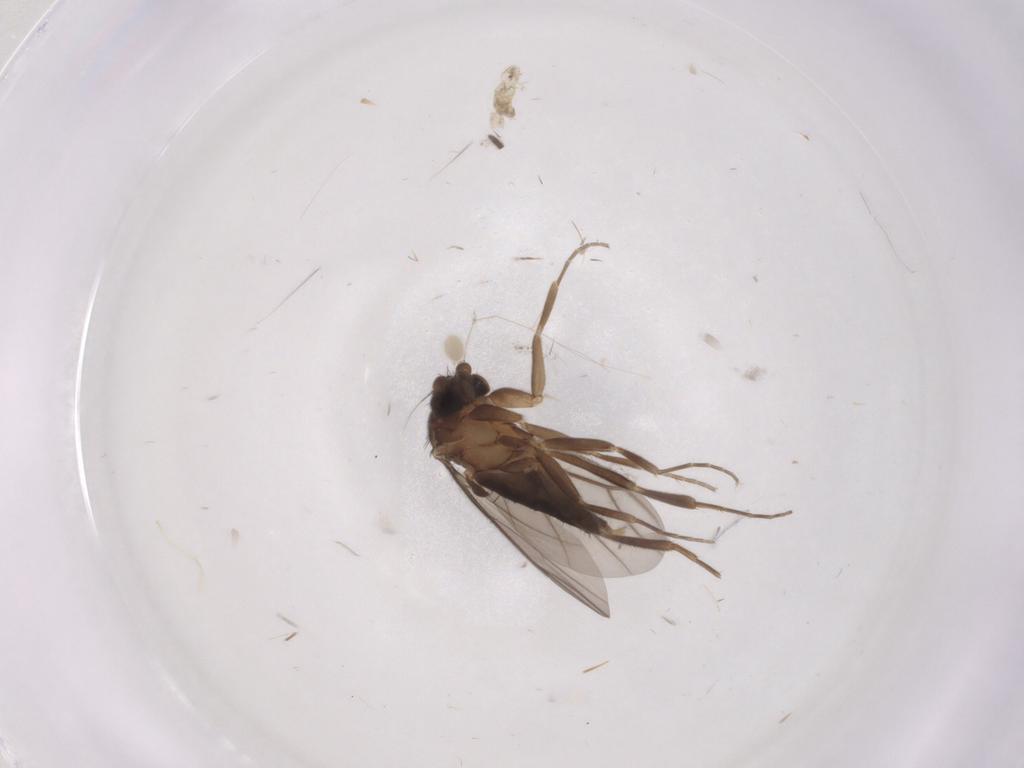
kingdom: Animalia
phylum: Arthropoda
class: Insecta
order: Diptera
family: Sciaridae
